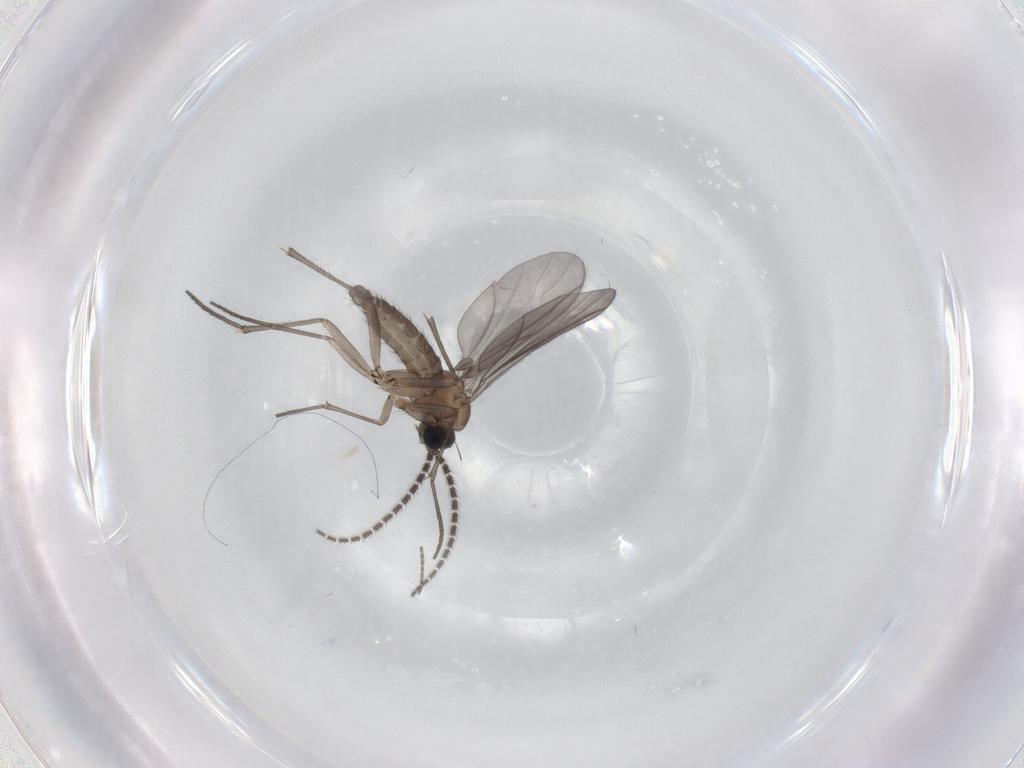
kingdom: Animalia
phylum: Arthropoda
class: Insecta
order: Diptera
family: Sciaridae
